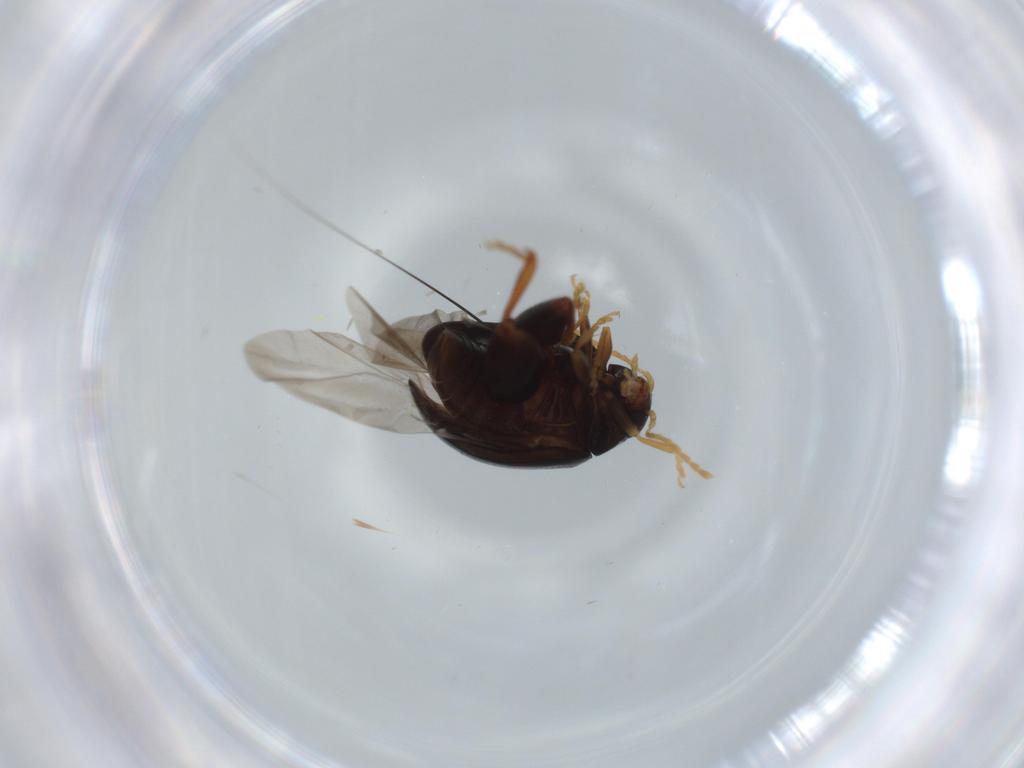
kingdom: Animalia
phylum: Arthropoda
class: Insecta
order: Coleoptera
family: Chrysomelidae
